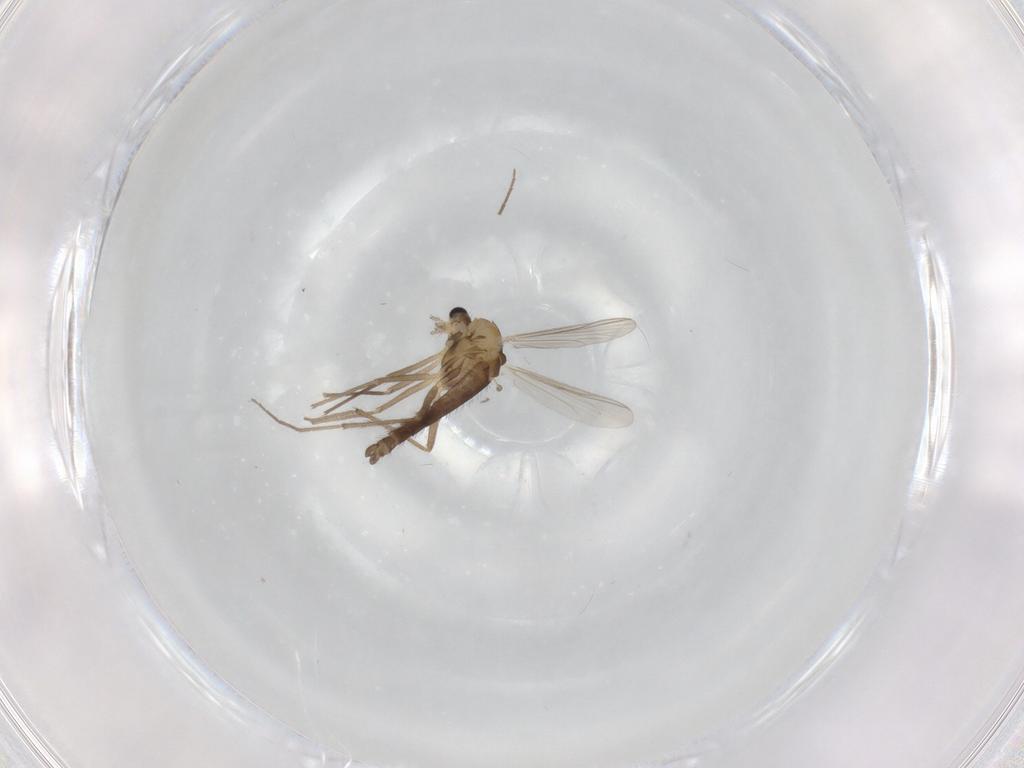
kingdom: Animalia
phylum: Arthropoda
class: Insecta
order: Diptera
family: Chironomidae
